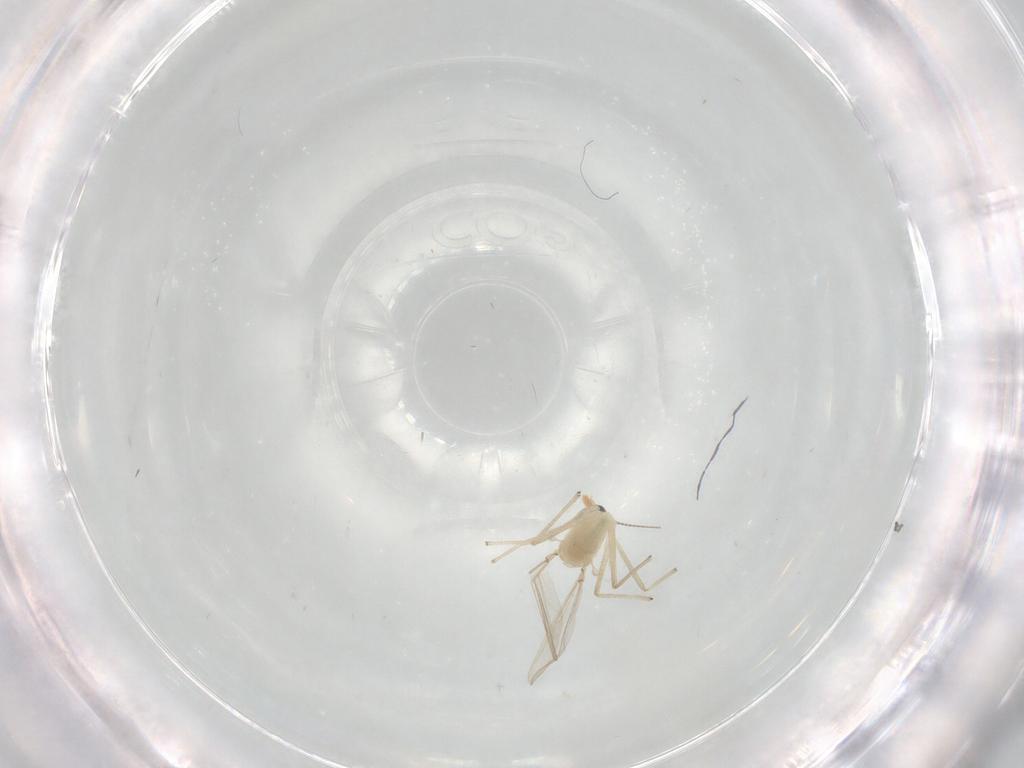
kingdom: Animalia
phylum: Arthropoda
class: Insecta
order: Diptera
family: Chironomidae
